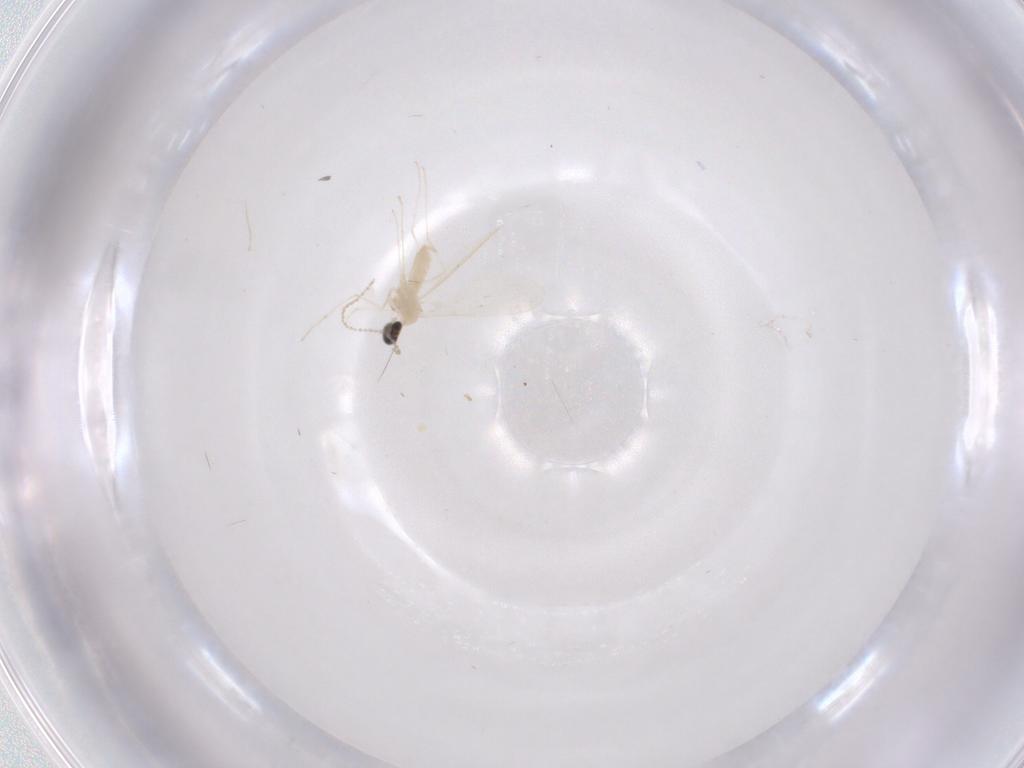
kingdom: Animalia
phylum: Arthropoda
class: Insecta
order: Diptera
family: Cecidomyiidae
